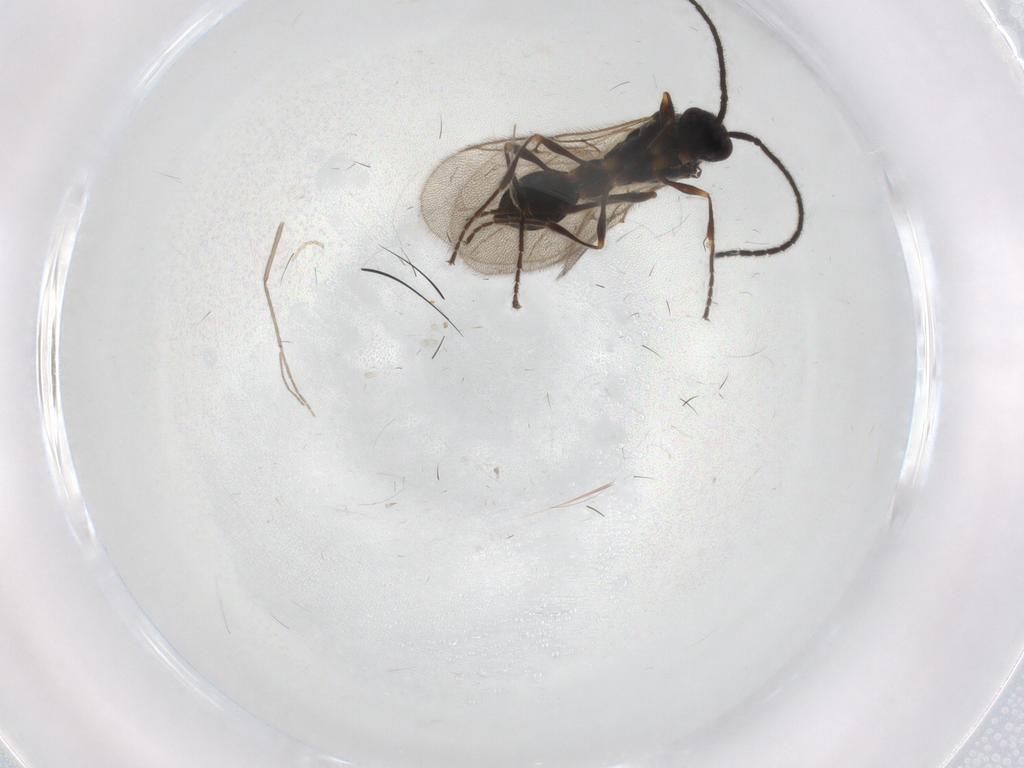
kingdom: Animalia
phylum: Arthropoda
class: Insecta
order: Hymenoptera
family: Diapriidae
